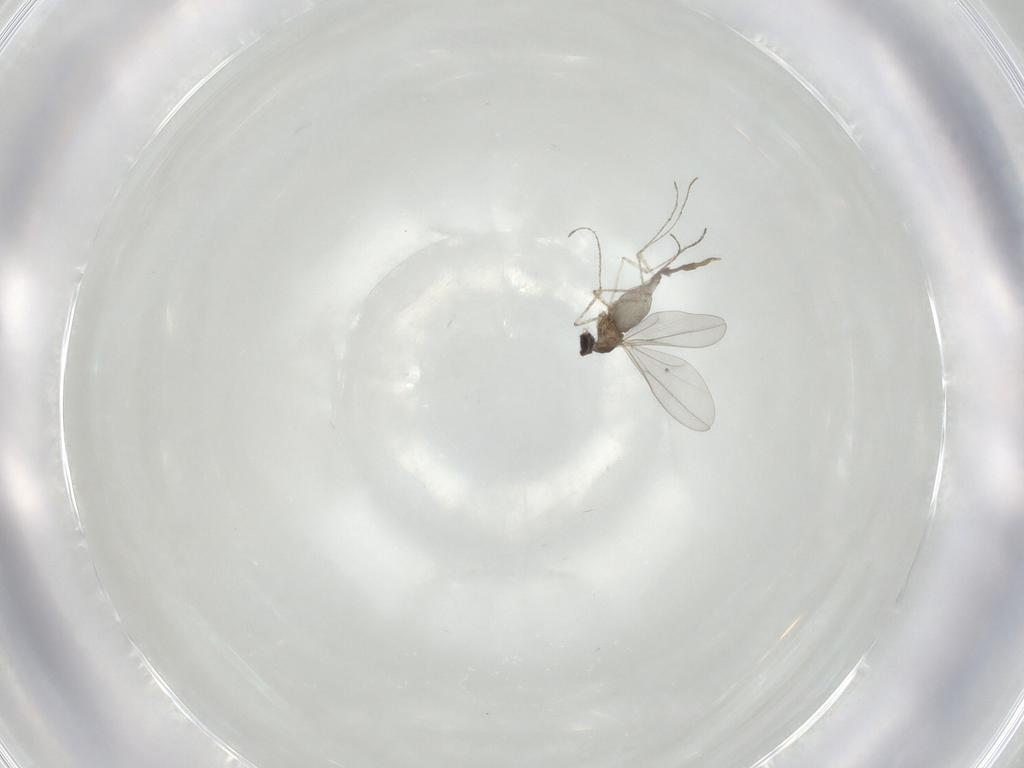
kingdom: Animalia
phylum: Arthropoda
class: Insecta
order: Diptera
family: Cecidomyiidae
